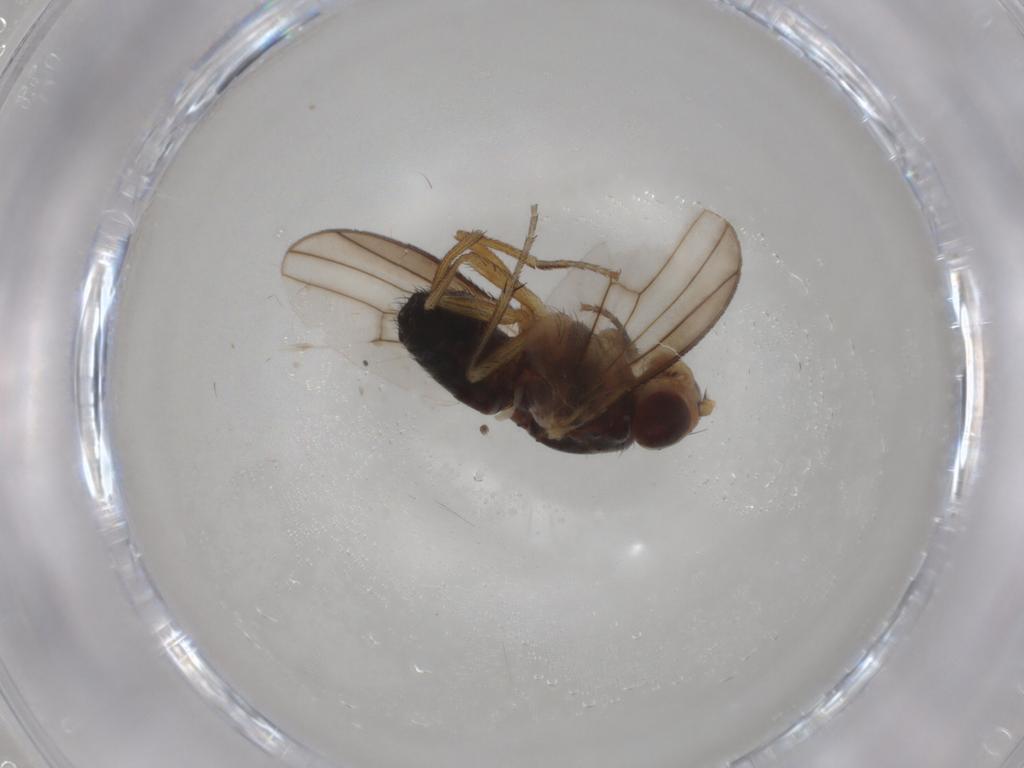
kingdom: Animalia
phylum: Arthropoda
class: Insecta
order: Diptera
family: Heleomyzidae
